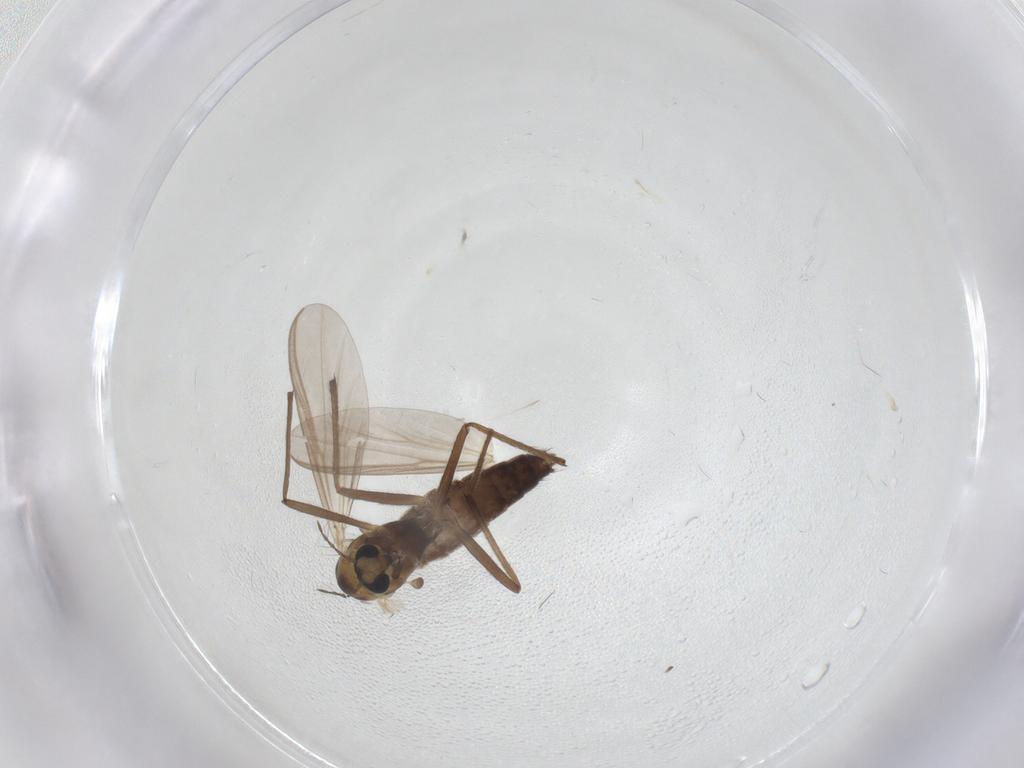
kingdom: Animalia
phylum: Arthropoda
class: Insecta
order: Diptera
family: Chironomidae
